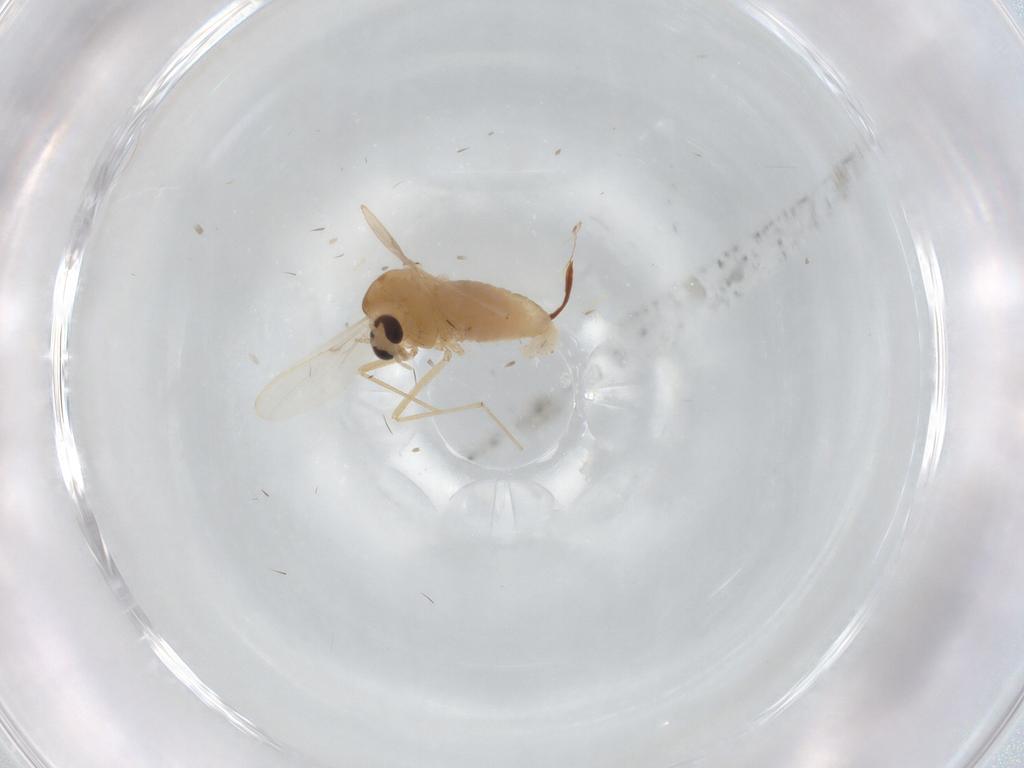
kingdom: Animalia
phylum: Arthropoda
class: Insecta
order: Diptera
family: Chironomidae
